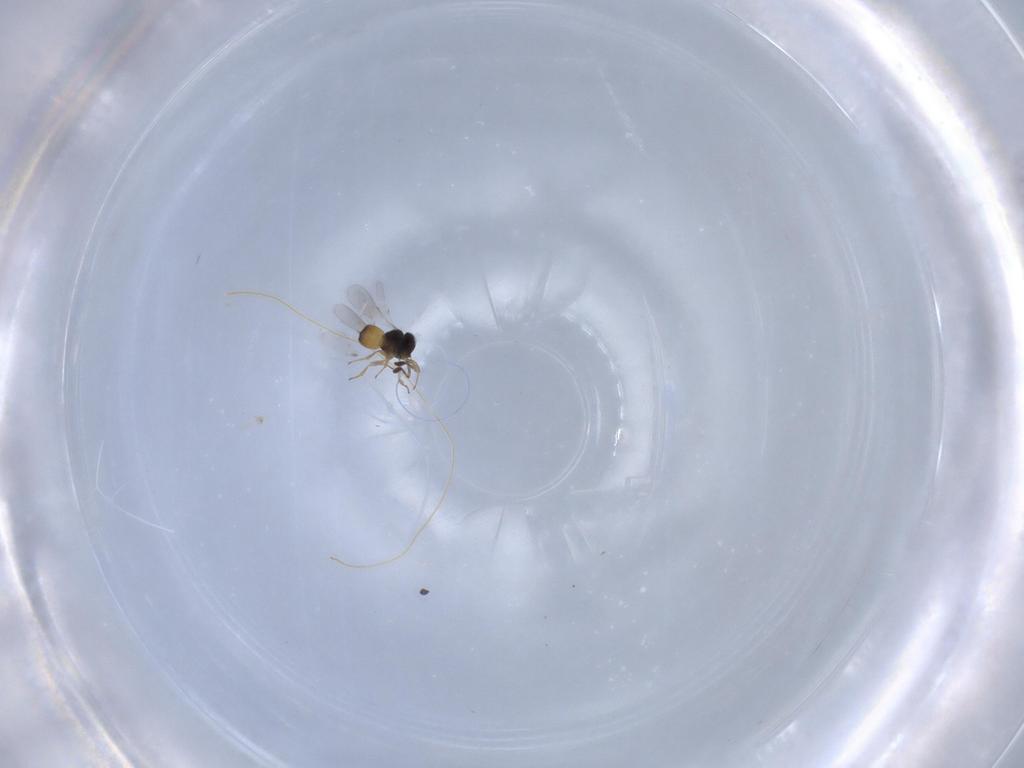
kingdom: Animalia
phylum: Arthropoda
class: Insecta
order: Hymenoptera
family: Scelionidae
